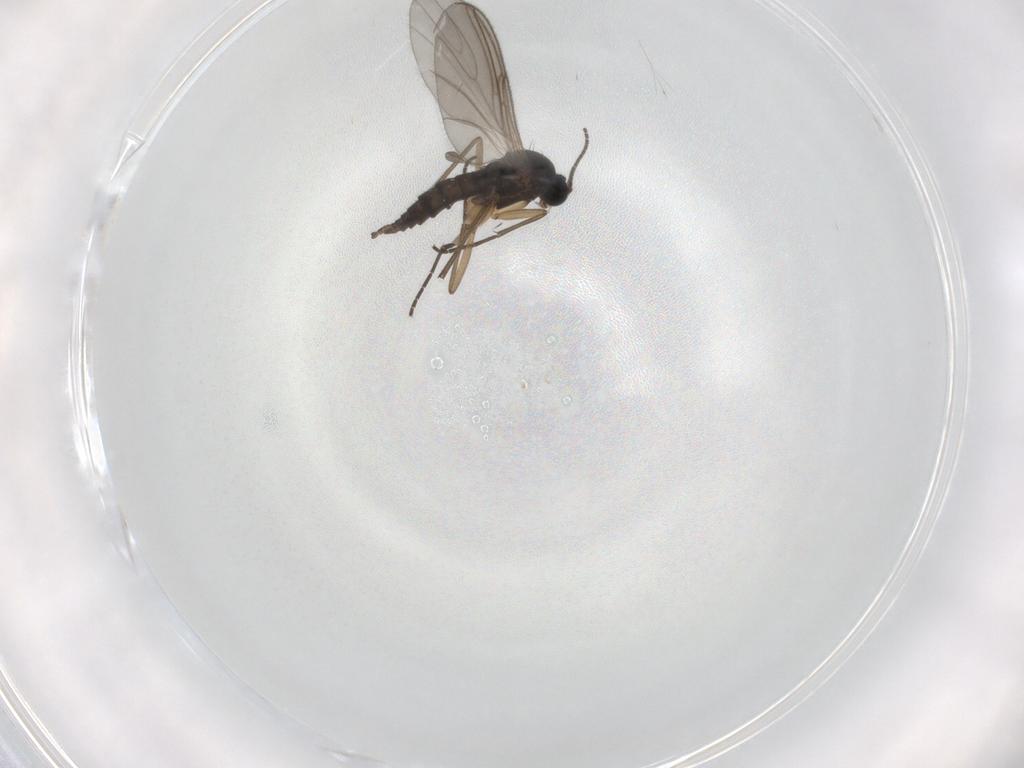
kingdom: Animalia
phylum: Arthropoda
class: Insecta
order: Diptera
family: Sciaridae
